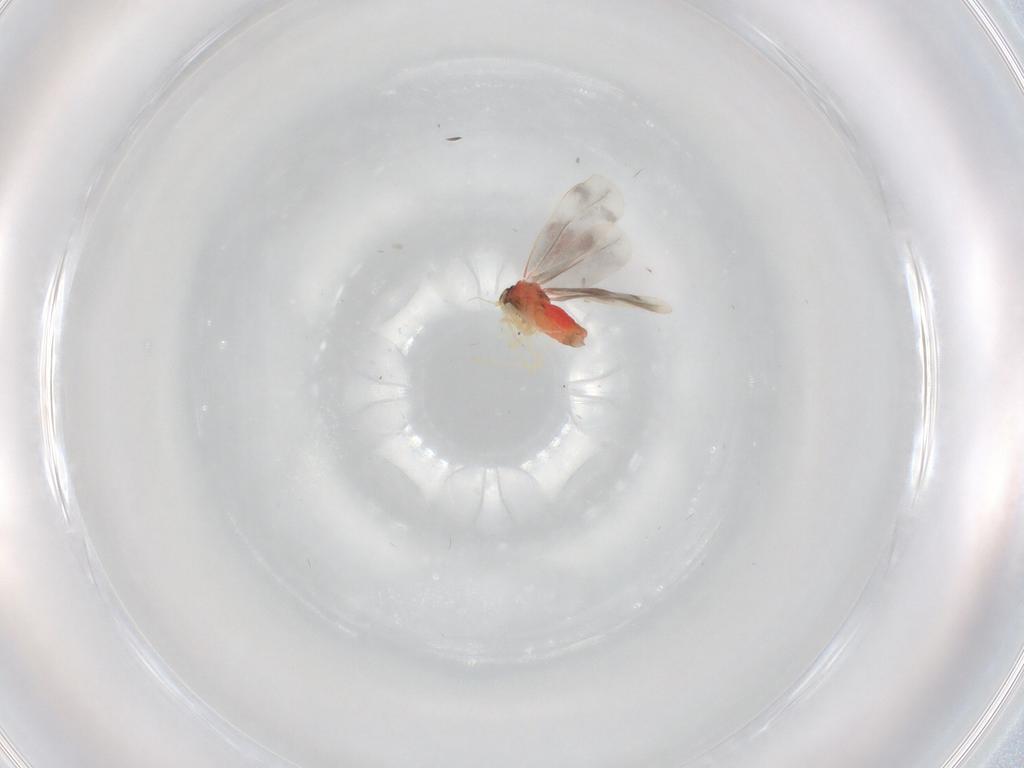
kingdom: Animalia
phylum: Arthropoda
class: Insecta
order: Hemiptera
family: Aleyrodidae
